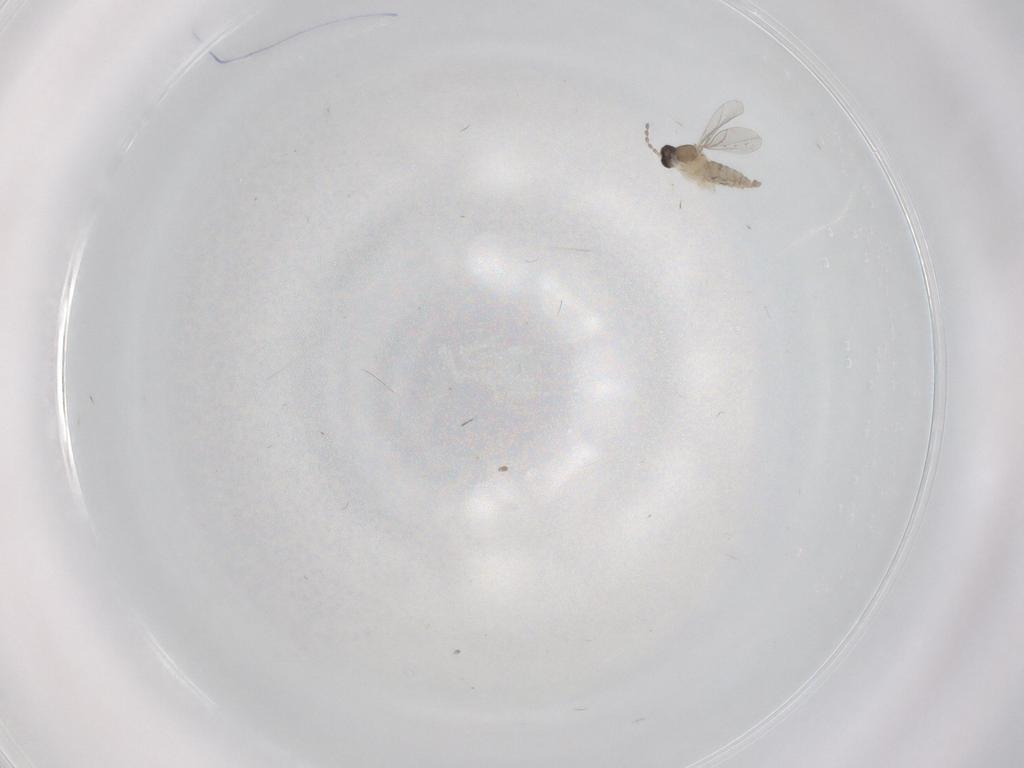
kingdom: Animalia
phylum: Arthropoda
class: Insecta
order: Diptera
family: Cecidomyiidae
